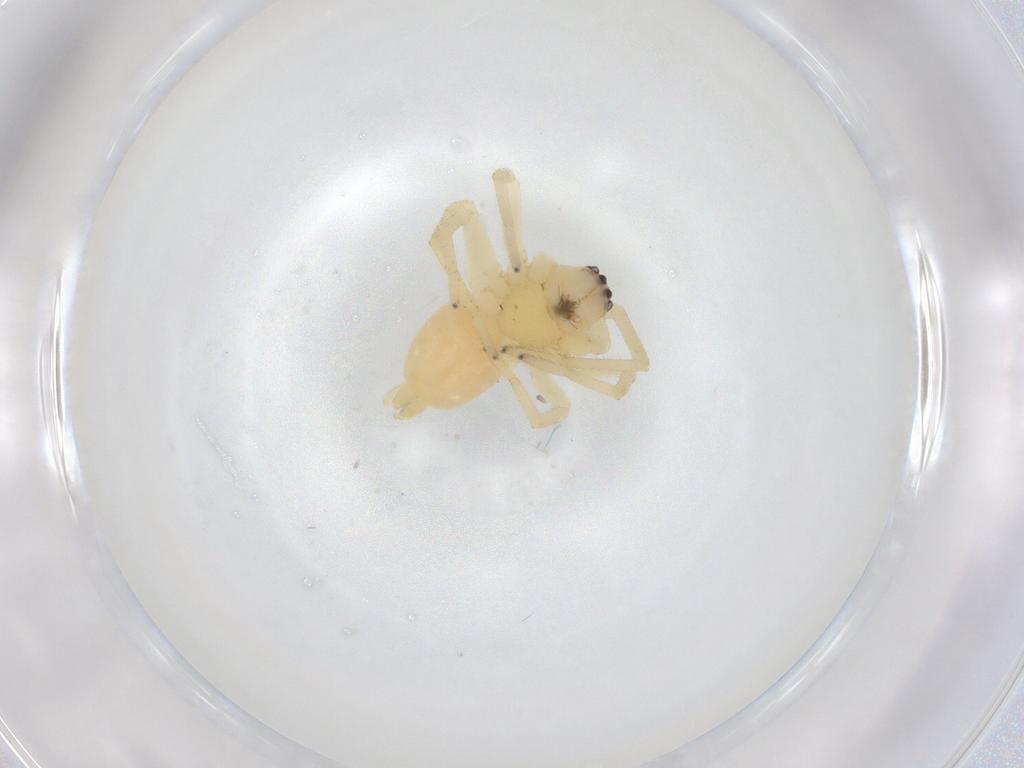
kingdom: Animalia
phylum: Arthropoda
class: Arachnida
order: Araneae
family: Cheiracanthiidae
